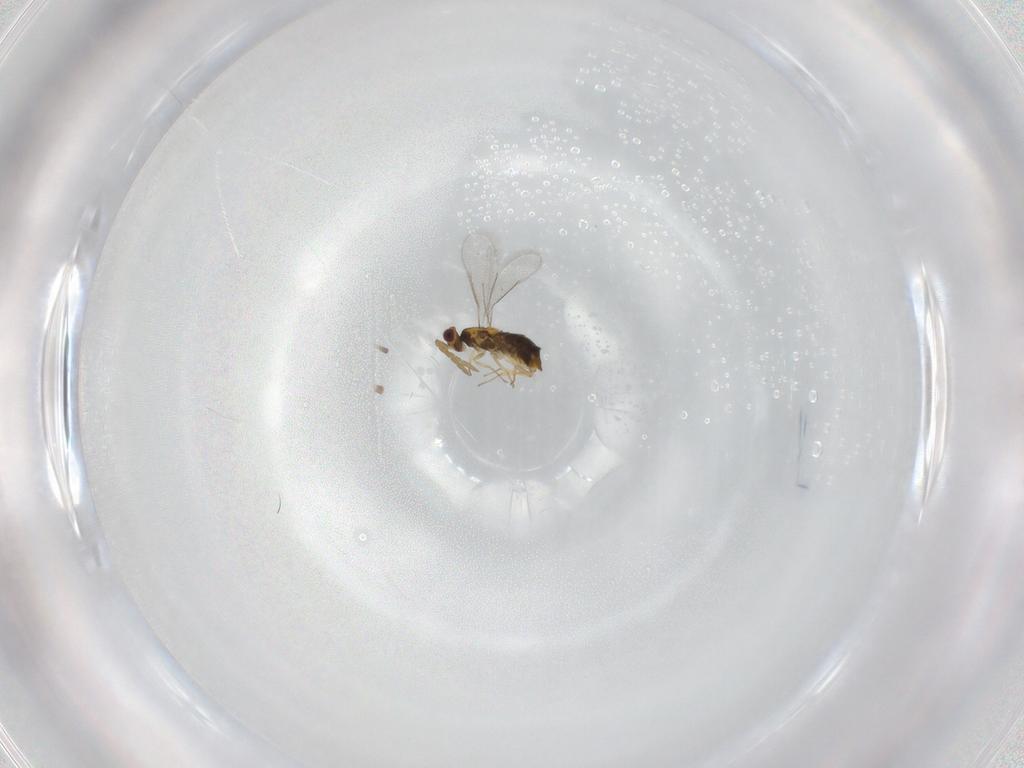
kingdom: Animalia
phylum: Arthropoda
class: Insecta
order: Hymenoptera
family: Aphelinidae
